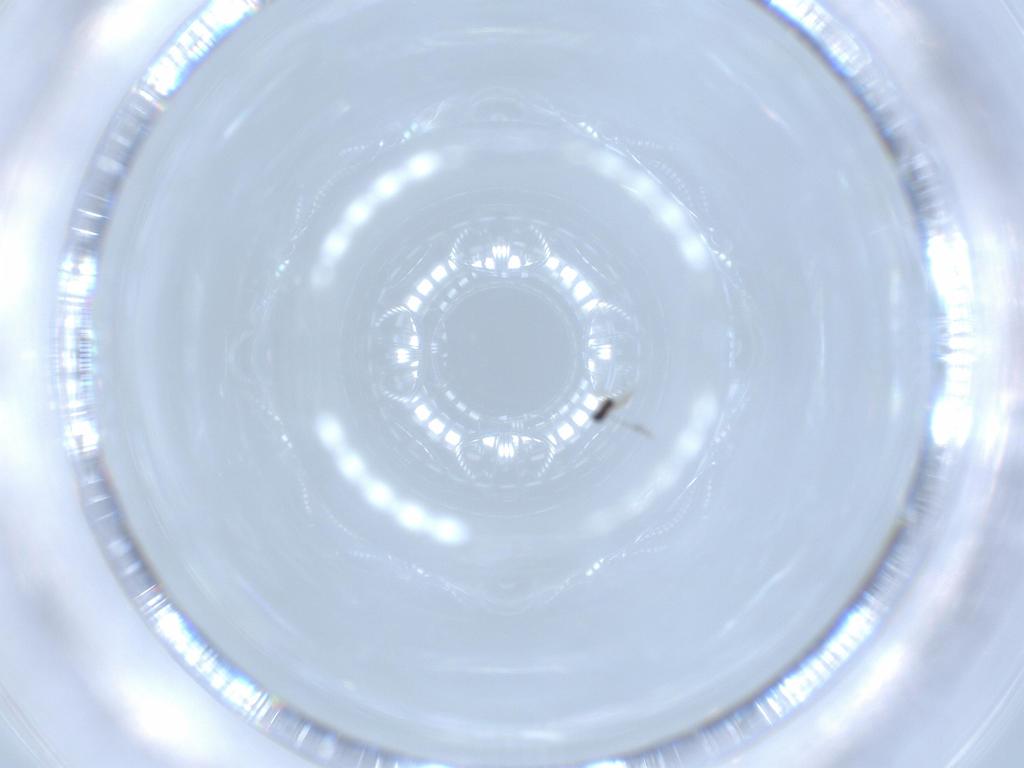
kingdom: Animalia
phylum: Arthropoda
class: Insecta
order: Hymenoptera
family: Mymaridae
